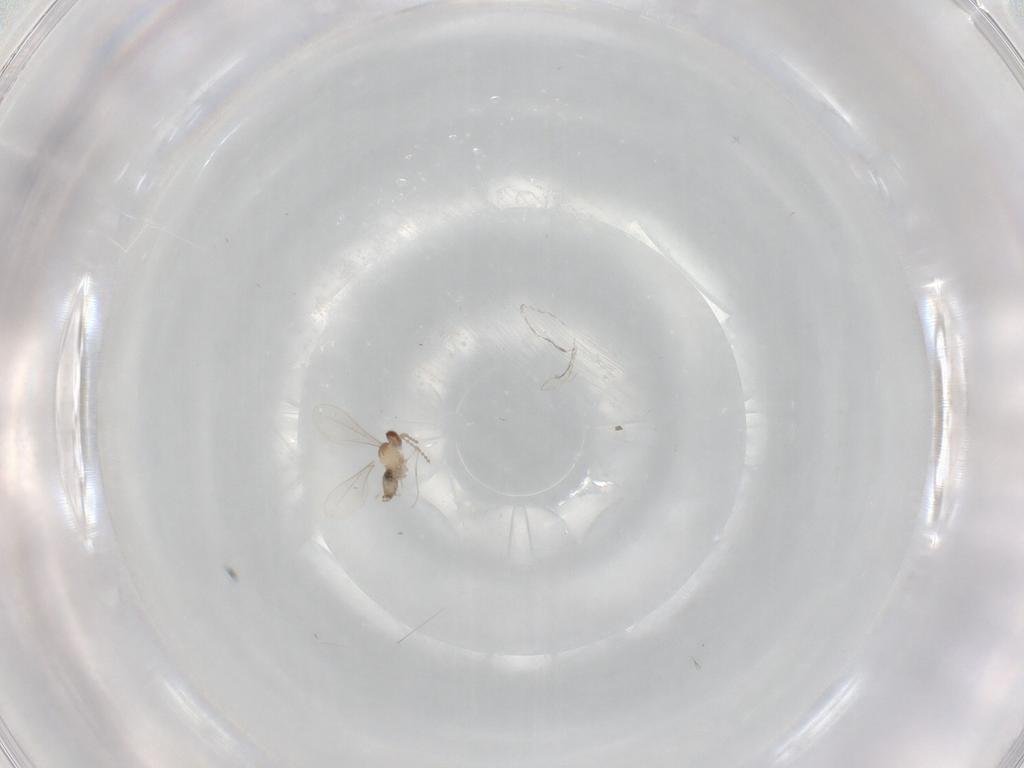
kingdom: Animalia
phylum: Arthropoda
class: Insecta
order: Diptera
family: Cecidomyiidae
